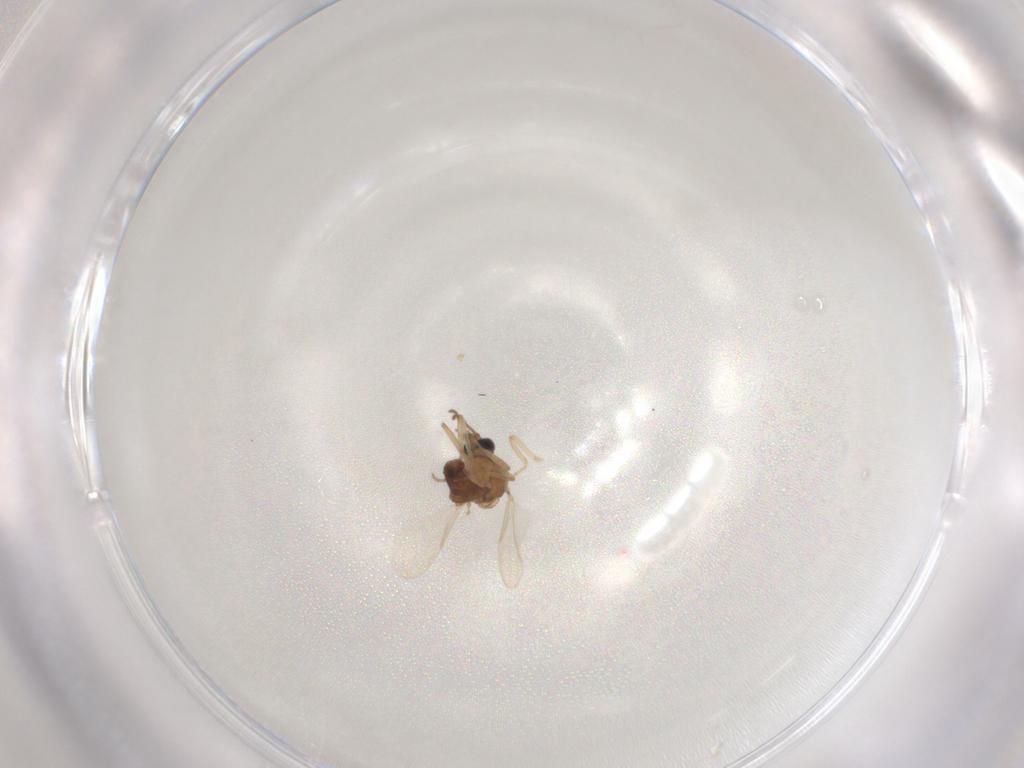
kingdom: Animalia
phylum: Arthropoda
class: Insecta
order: Diptera
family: Ceratopogonidae
